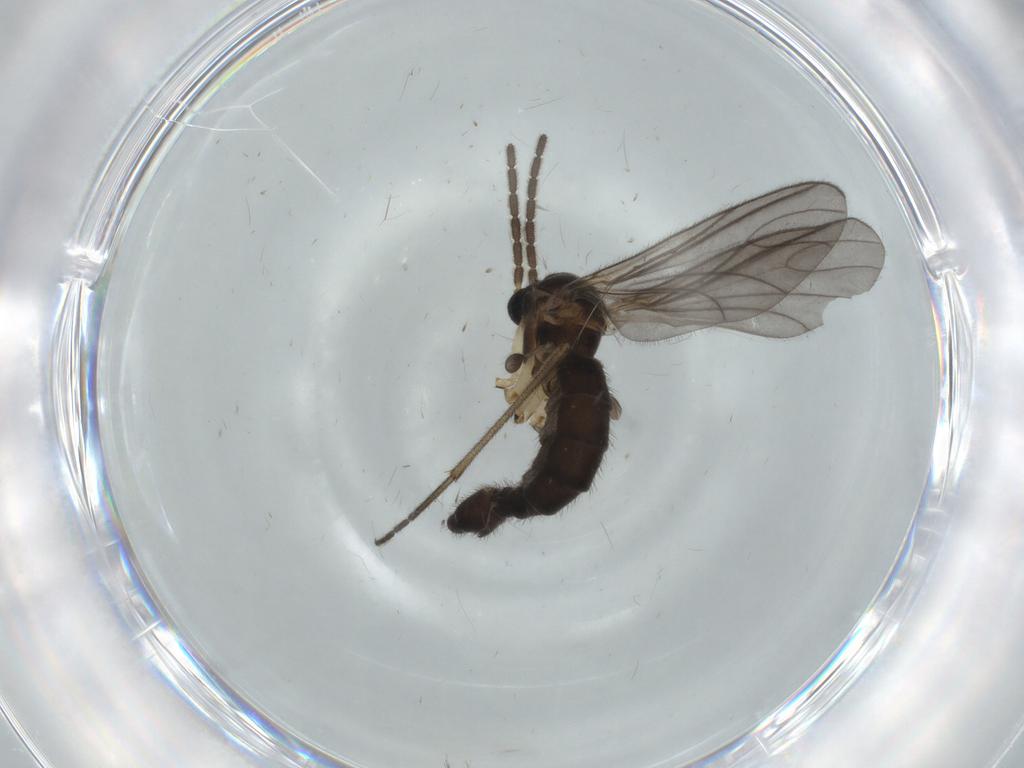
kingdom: Animalia
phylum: Arthropoda
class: Insecta
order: Diptera
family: Sciaridae
